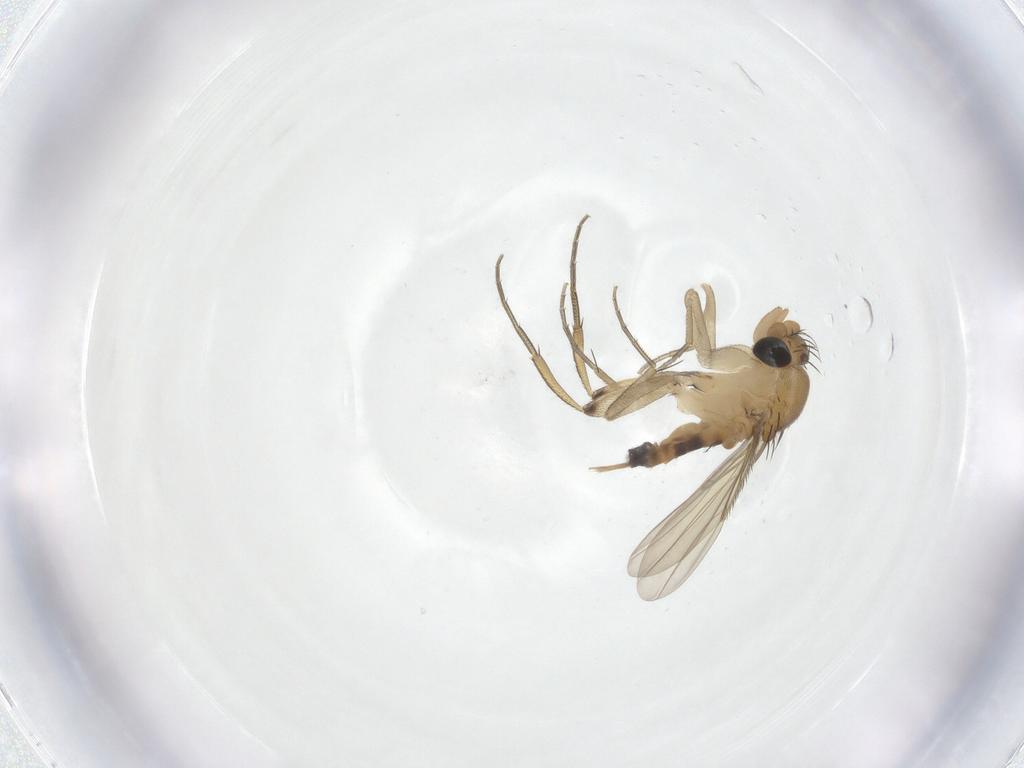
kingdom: Animalia
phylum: Arthropoda
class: Insecta
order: Diptera
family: Phoridae
